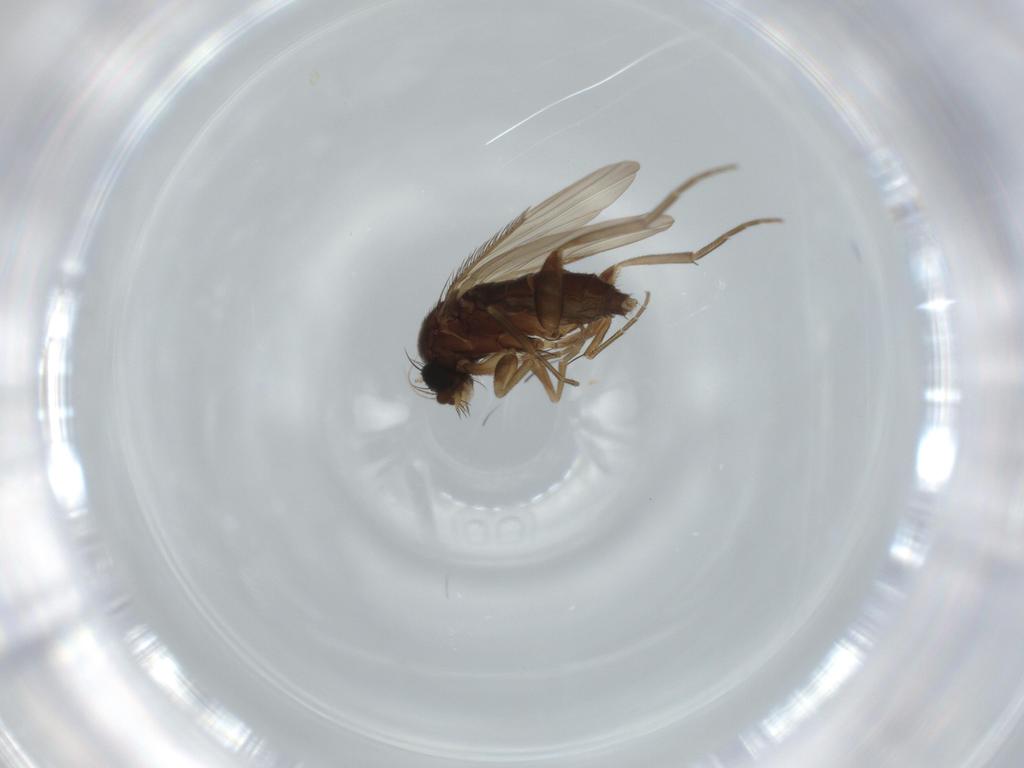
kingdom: Animalia
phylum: Arthropoda
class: Insecta
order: Diptera
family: Phoridae
